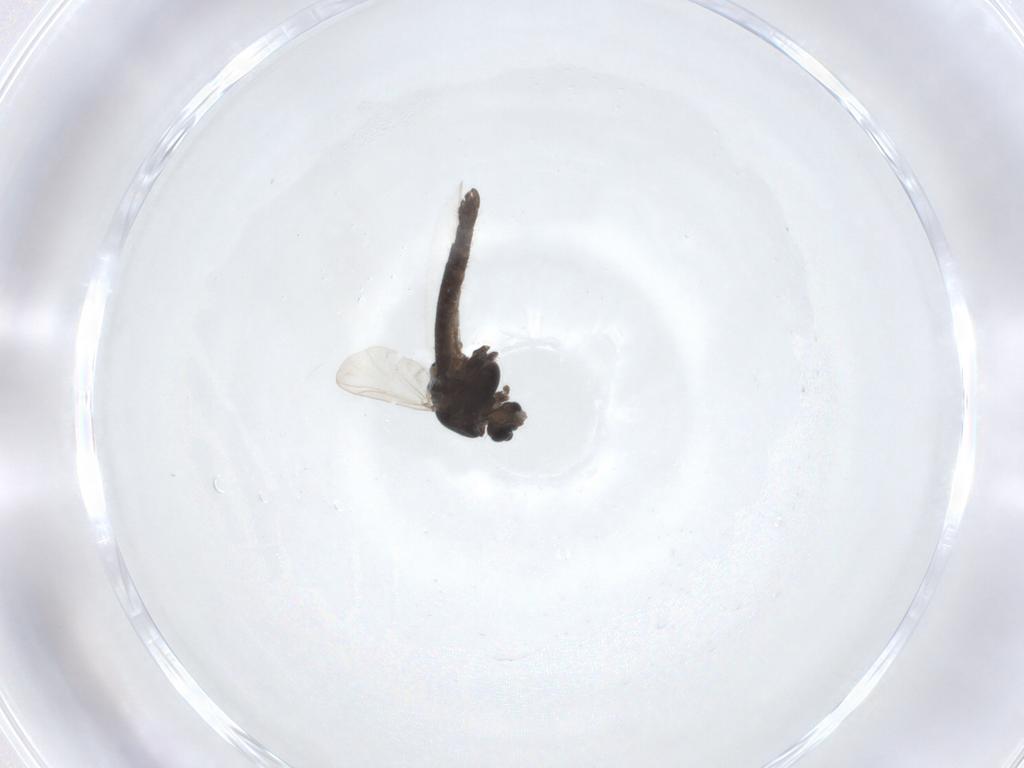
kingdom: Animalia
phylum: Arthropoda
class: Insecta
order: Diptera
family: Chironomidae
